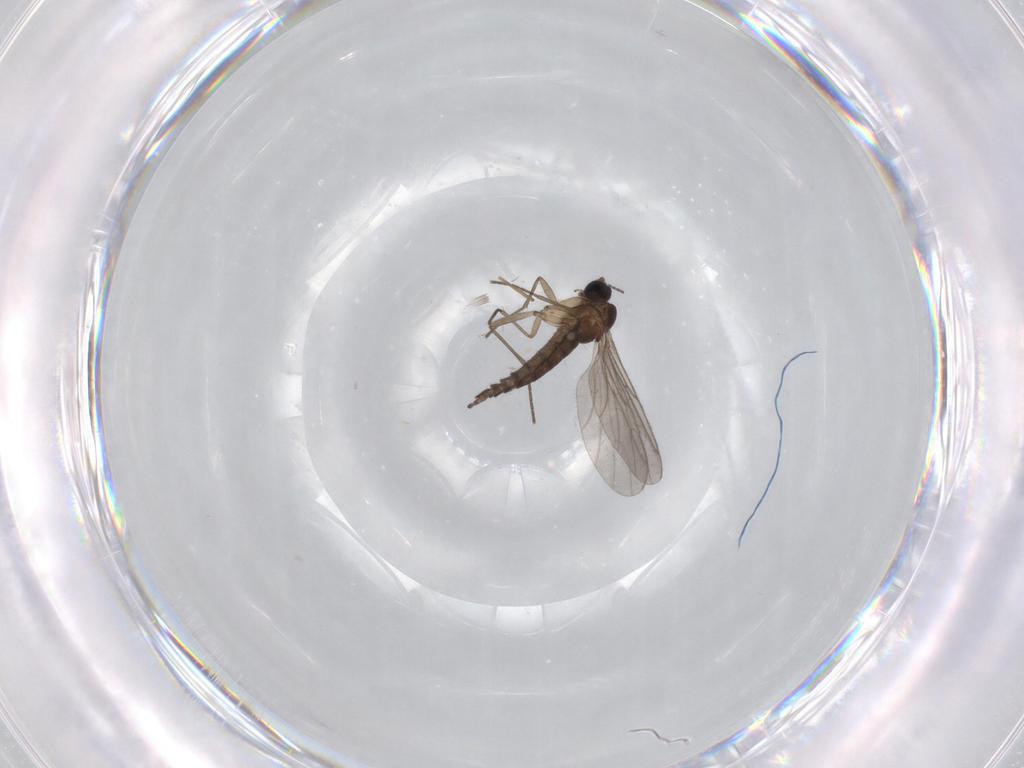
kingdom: Animalia
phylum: Arthropoda
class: Insecta
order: Diptera
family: Sciaridae
